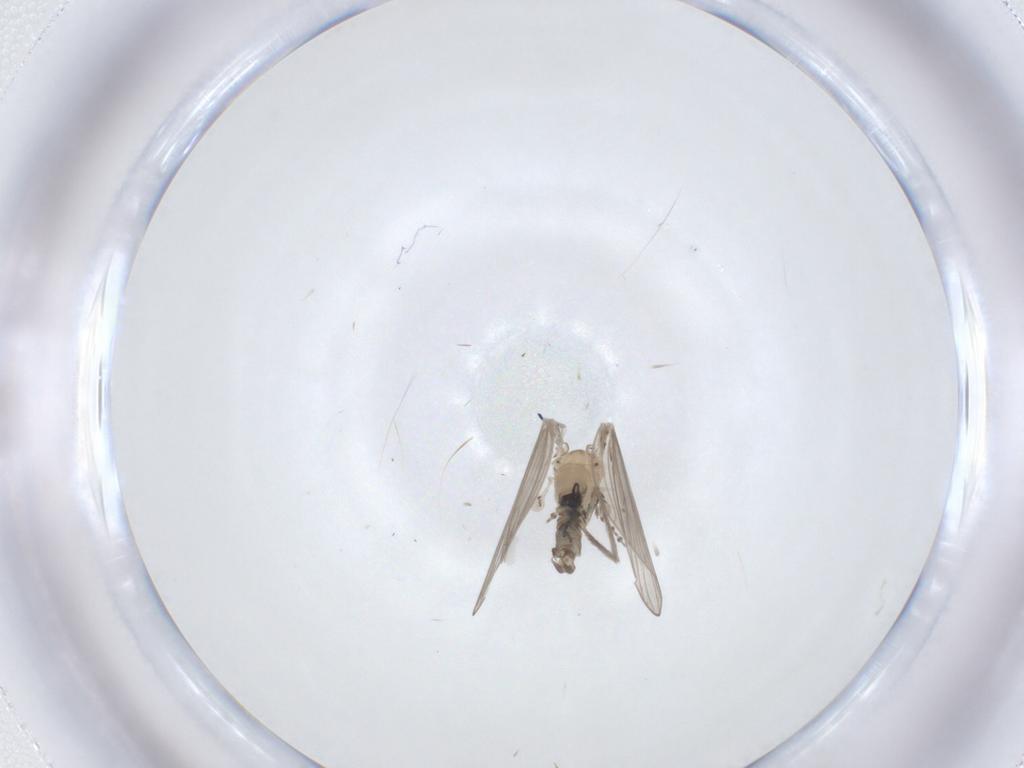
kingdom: Animalia
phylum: Arthropoda
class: Insecta
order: Diptera
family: Psychodidae
